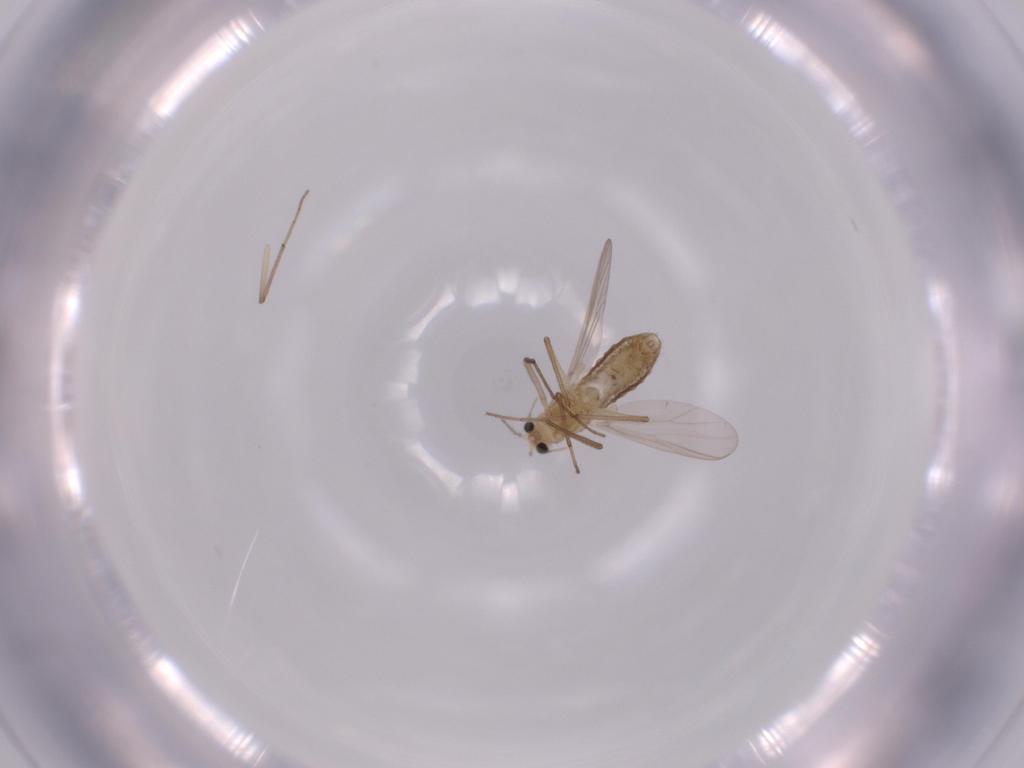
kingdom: Animalia
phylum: Arthropoda
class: Insecta
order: Diptera
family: Chironomidae
